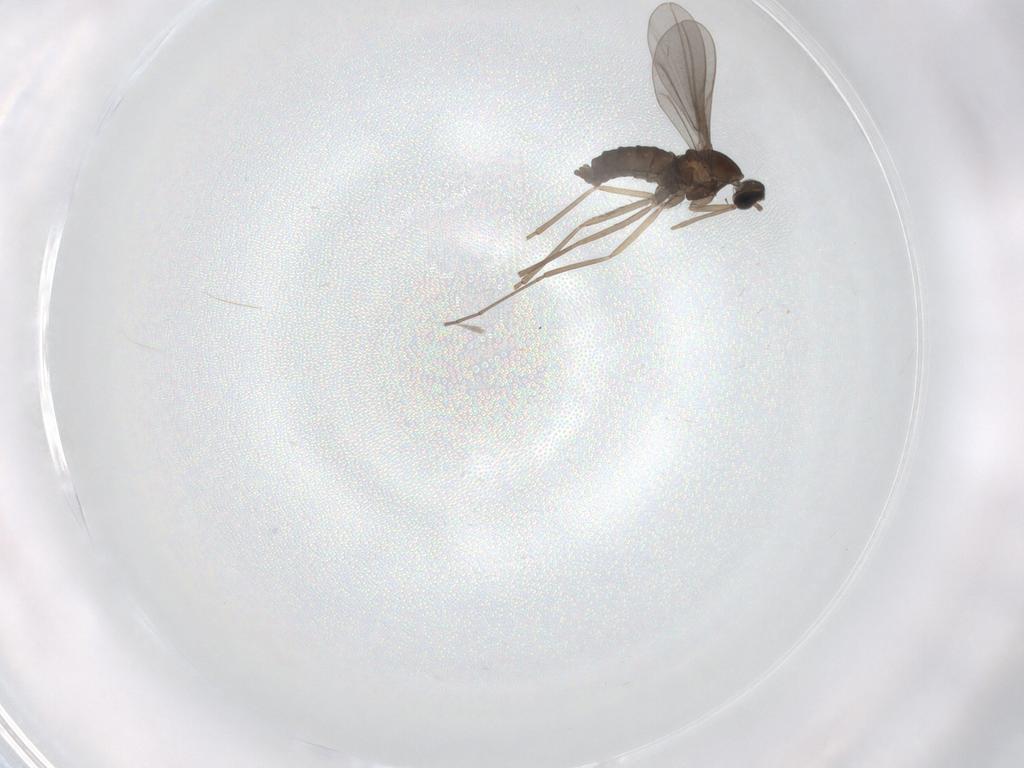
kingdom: Animalia
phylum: Arthropoda
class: Insecta
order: Diptera
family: Cecidomyiidae
